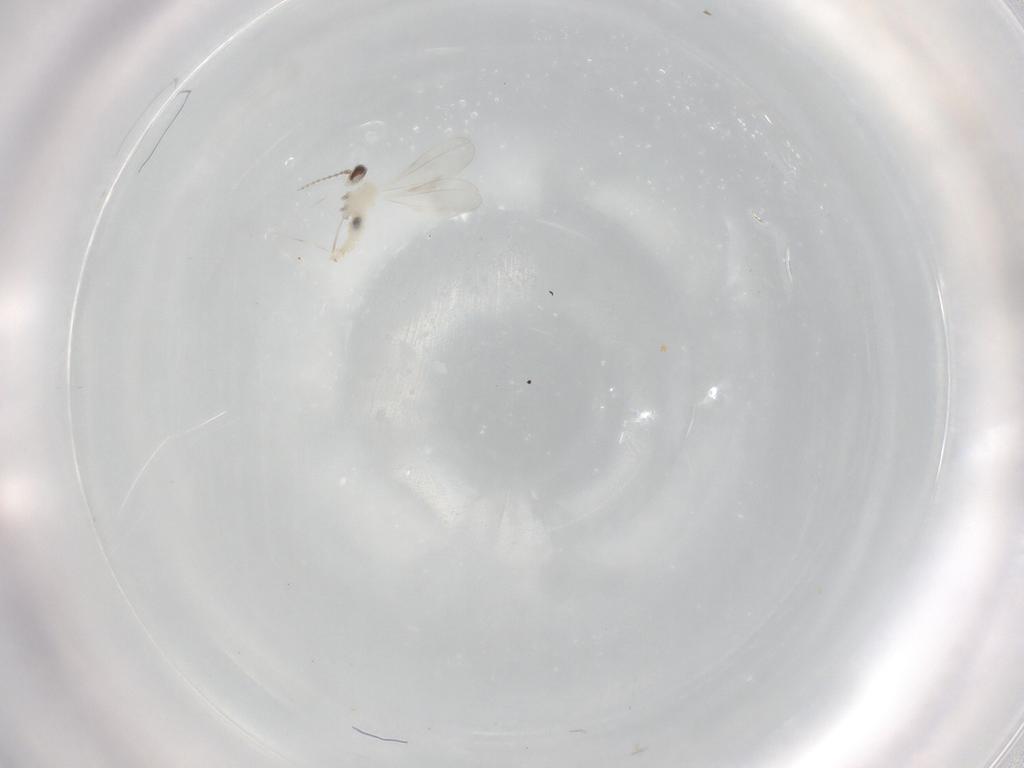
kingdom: Animalia
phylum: Arthropoda
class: Insecta
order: Diptera
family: Cecidomyiidae
